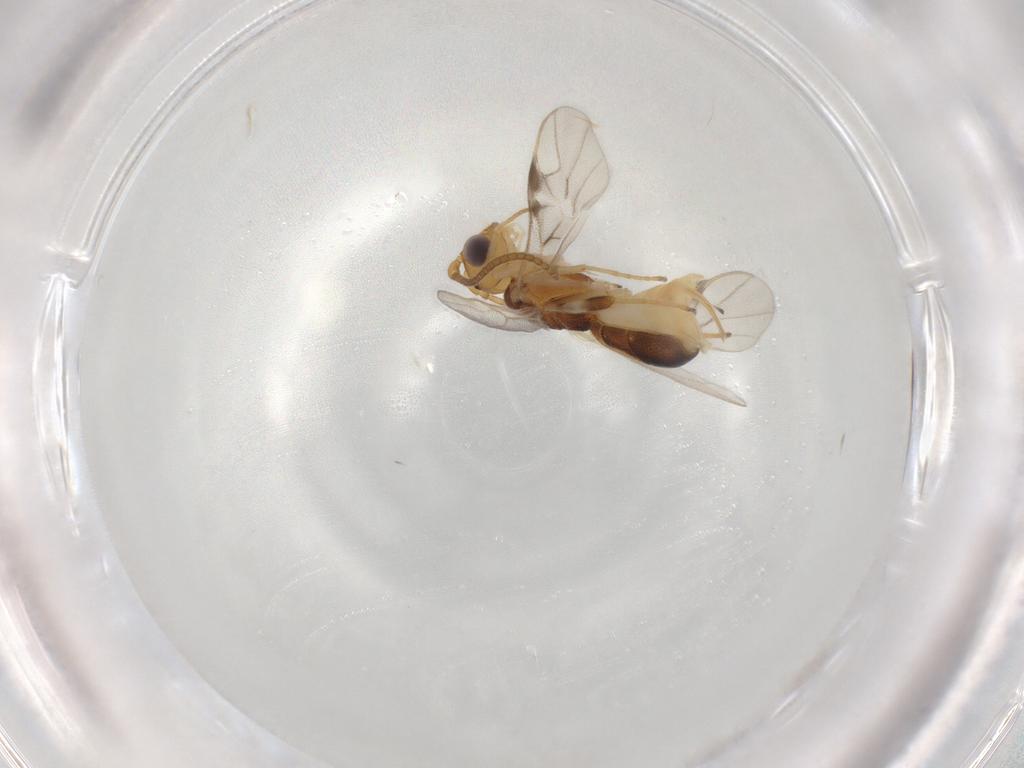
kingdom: Animalia
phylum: Arthropoda
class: Insecta
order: Hymenoptera
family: Braconidae
